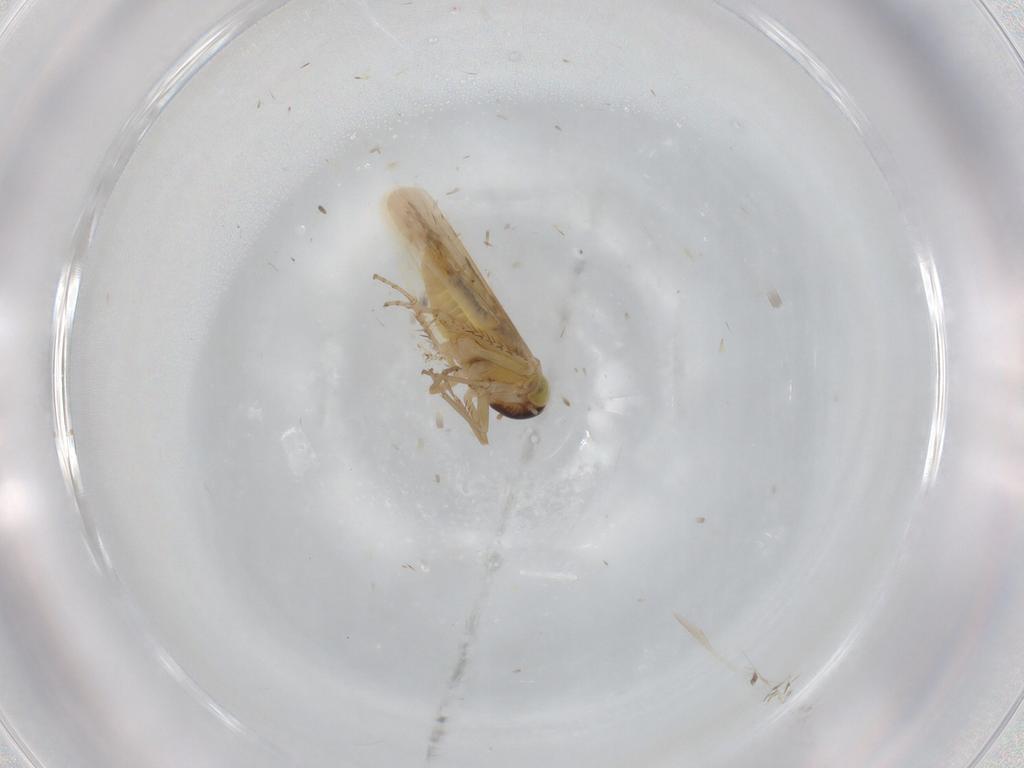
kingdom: Animalia
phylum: Arthropoda
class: Insecta
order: Hemiptera
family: Cicadellidae
